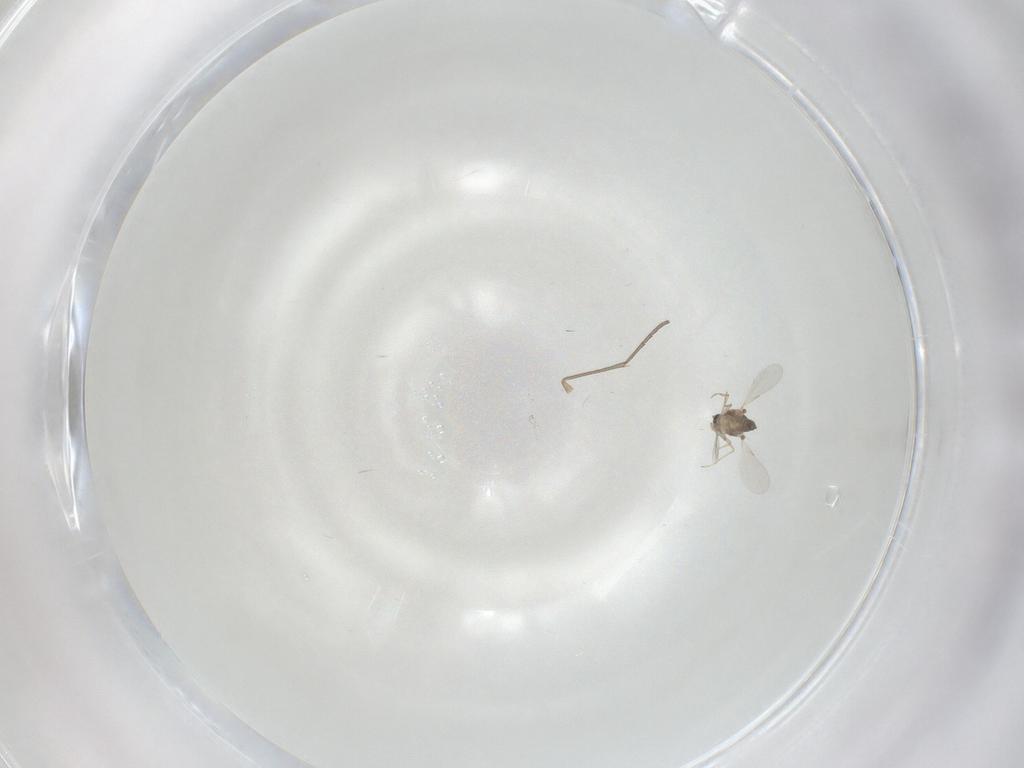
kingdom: Animalia
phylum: Arthropoda
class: Insecta
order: Diptera
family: Ceratopogonidae
